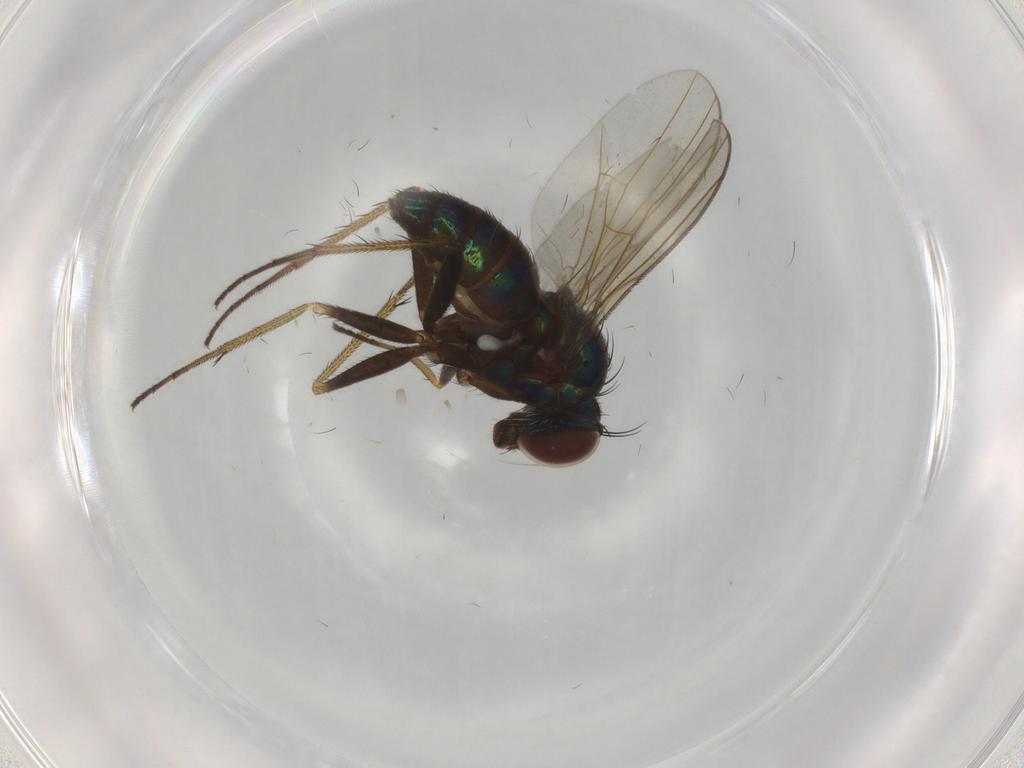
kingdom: Animalia
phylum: Arthropoda
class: Insecta
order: Diptera
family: Dolichopodidae
